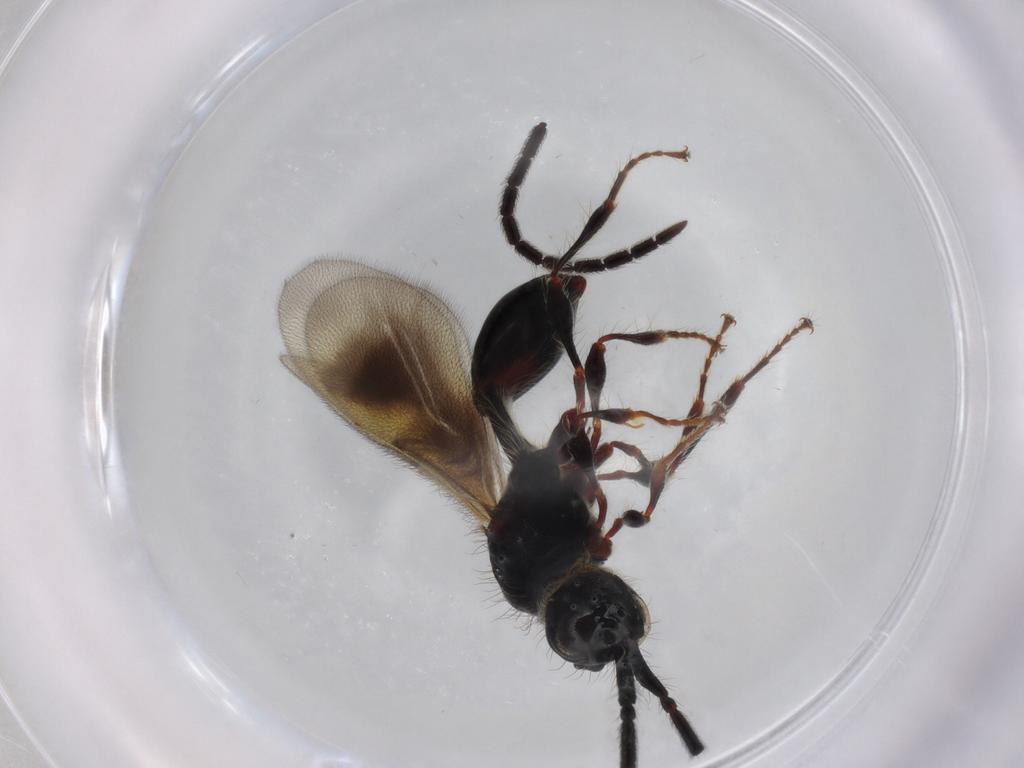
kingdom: Animalia
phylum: Arthropoda
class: Insecta
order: Hymenoptera
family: Diapriidae
